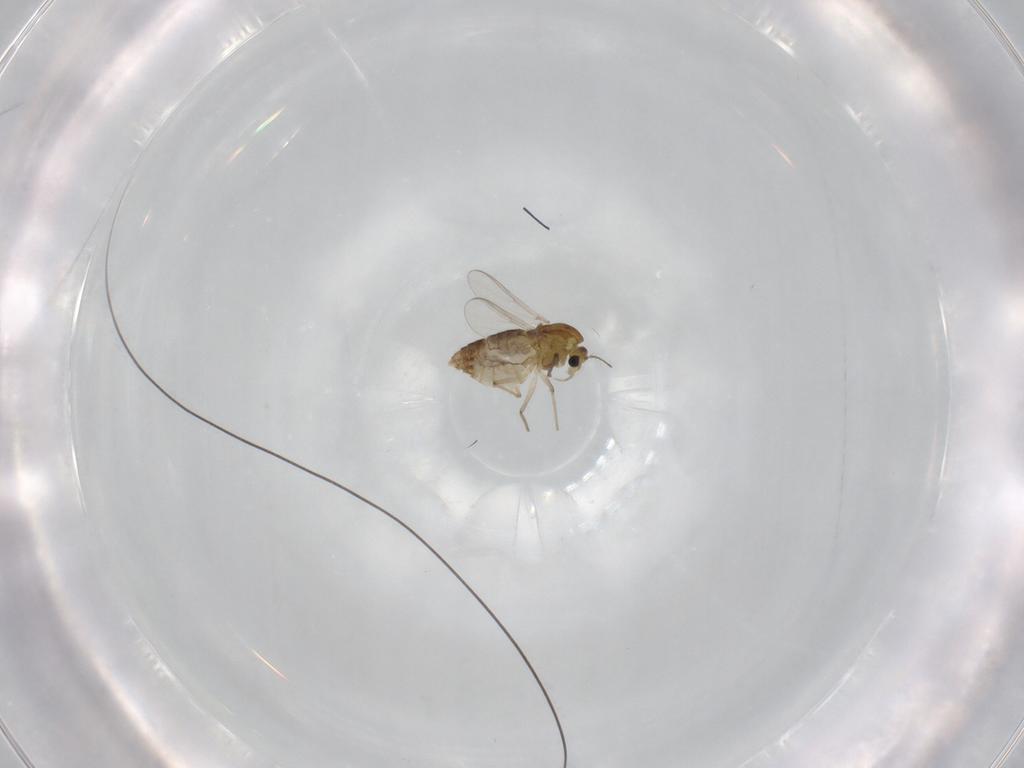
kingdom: Animalia
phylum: Arthropoda
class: Insecta
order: Diptera
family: Chironomidae
